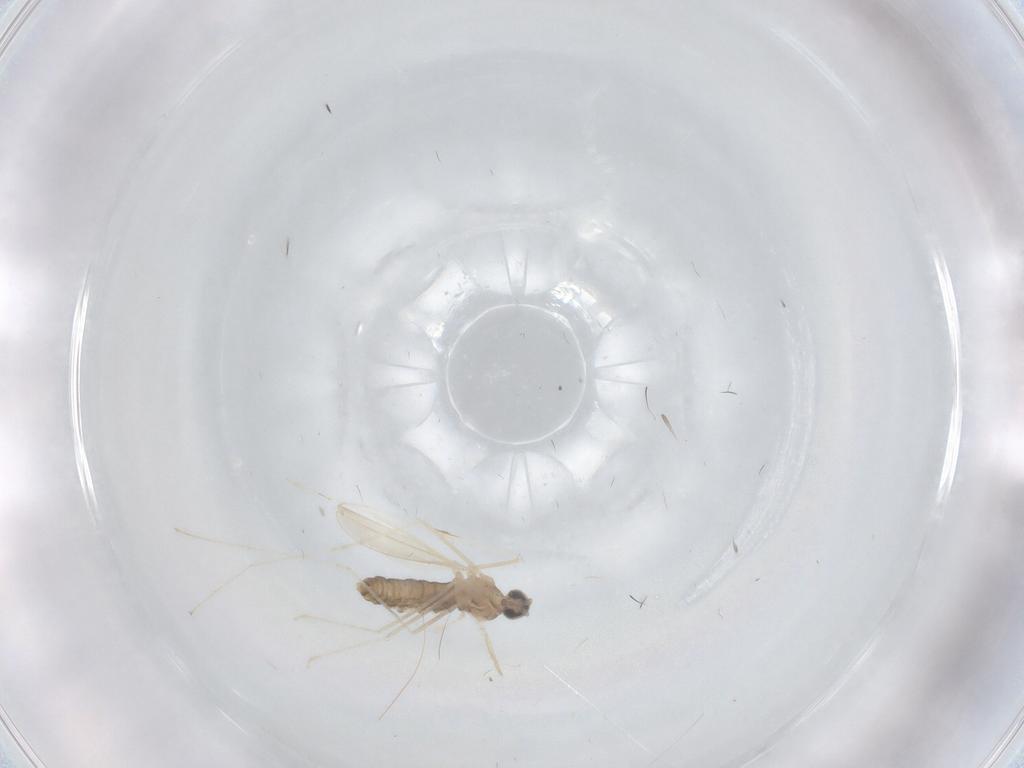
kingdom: Animalia
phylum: Arthropoda
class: Insecta
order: Diptera
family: Cecidomyiidae
